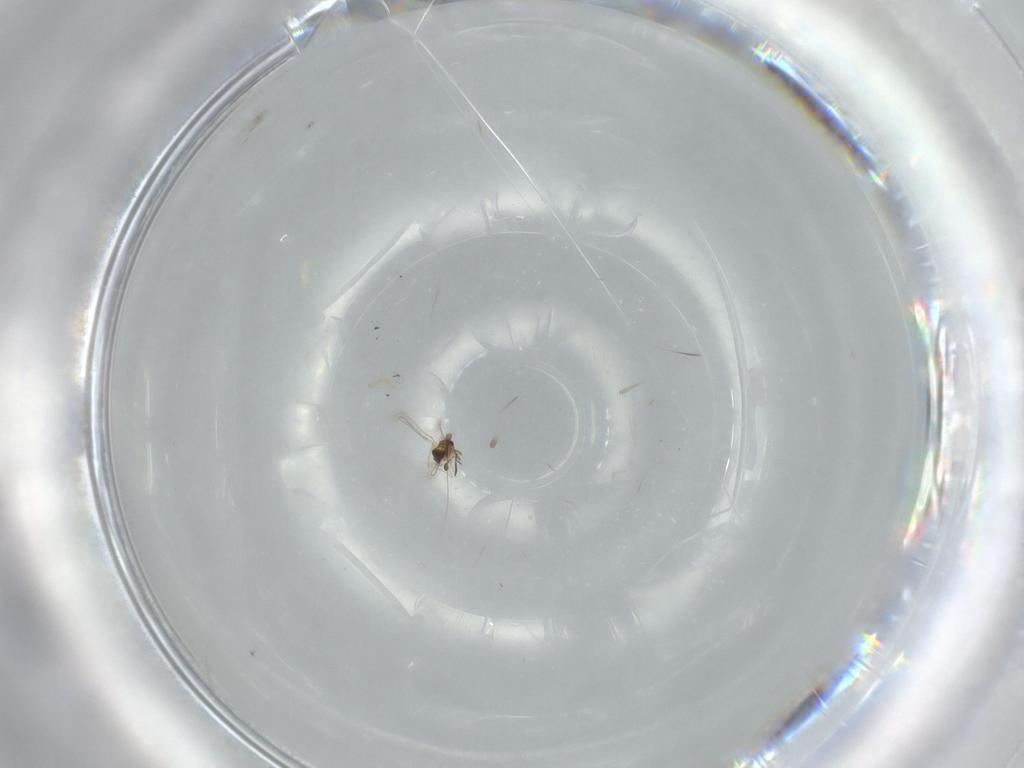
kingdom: Animalia
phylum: Arthropoda
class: Insecta
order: Hymenoptera
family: Mymaridae
